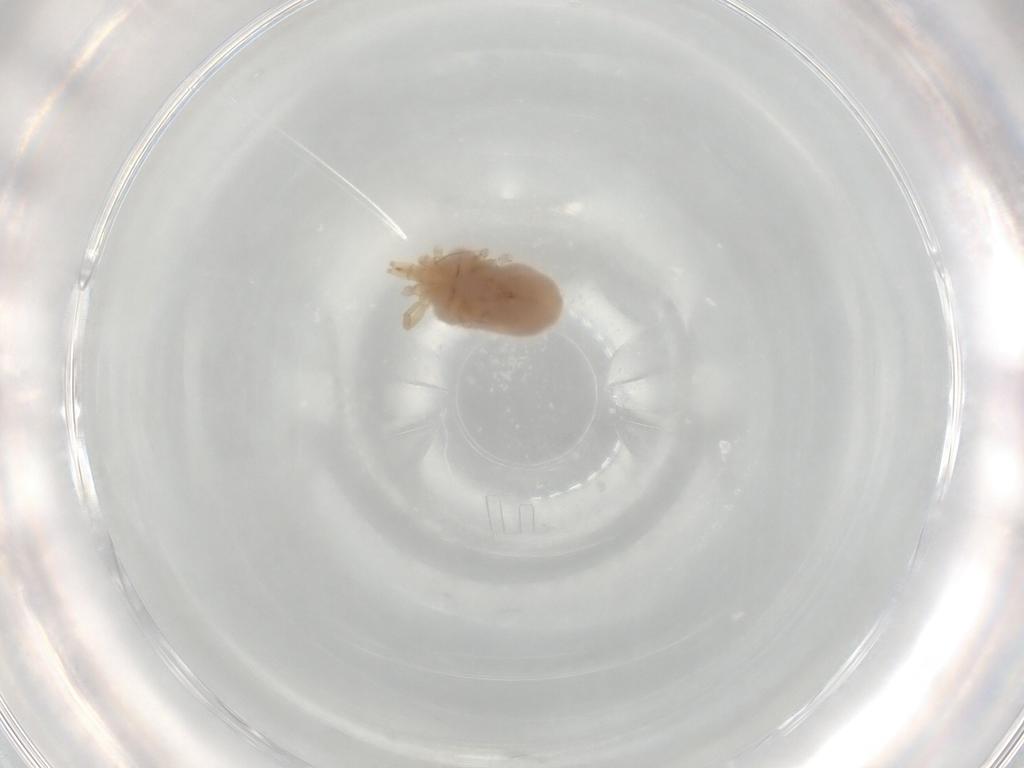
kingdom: Animalia
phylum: Arthropoda
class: Arachnida
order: Trombidiformes
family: Erythraeidae
